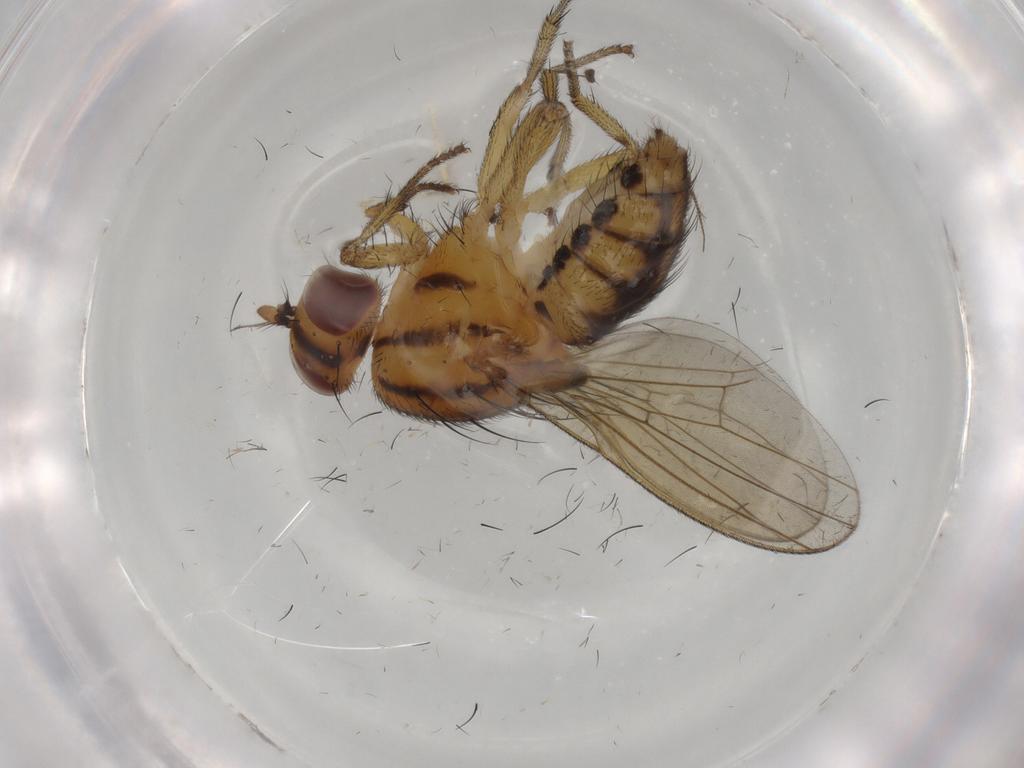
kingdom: Animalia
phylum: Arthropoda
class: Insecta
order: Diptera
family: Ceratopogonidae
